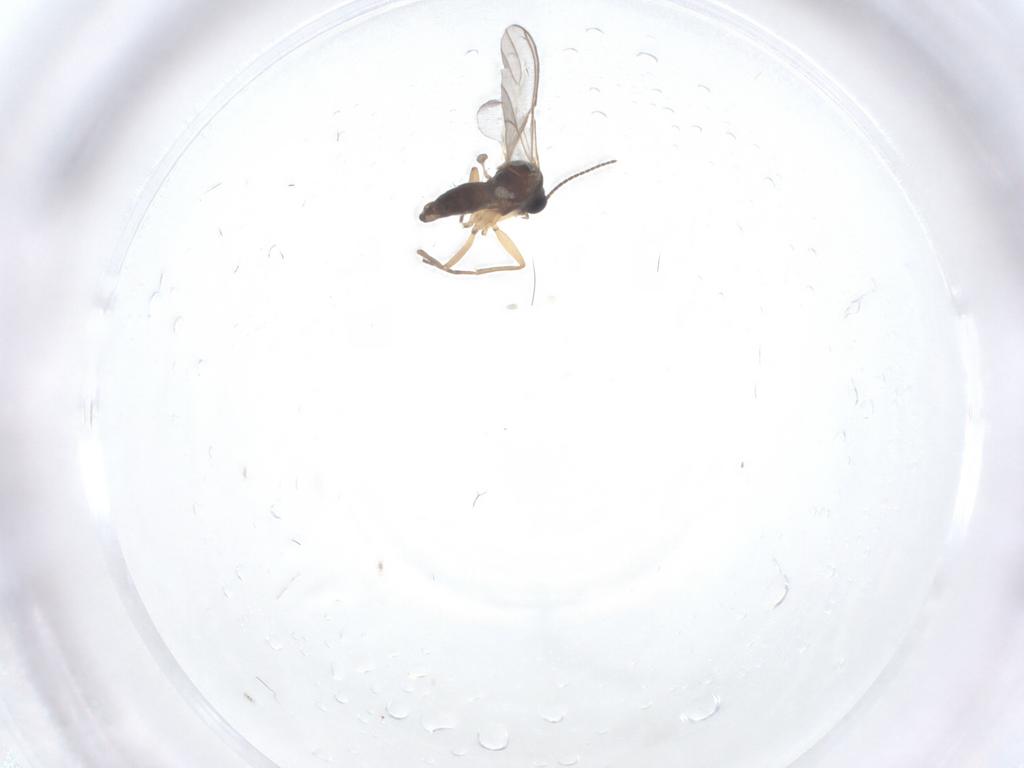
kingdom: Animalia
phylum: Arthropoda
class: Insecta
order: Diptera
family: Sciaridae
